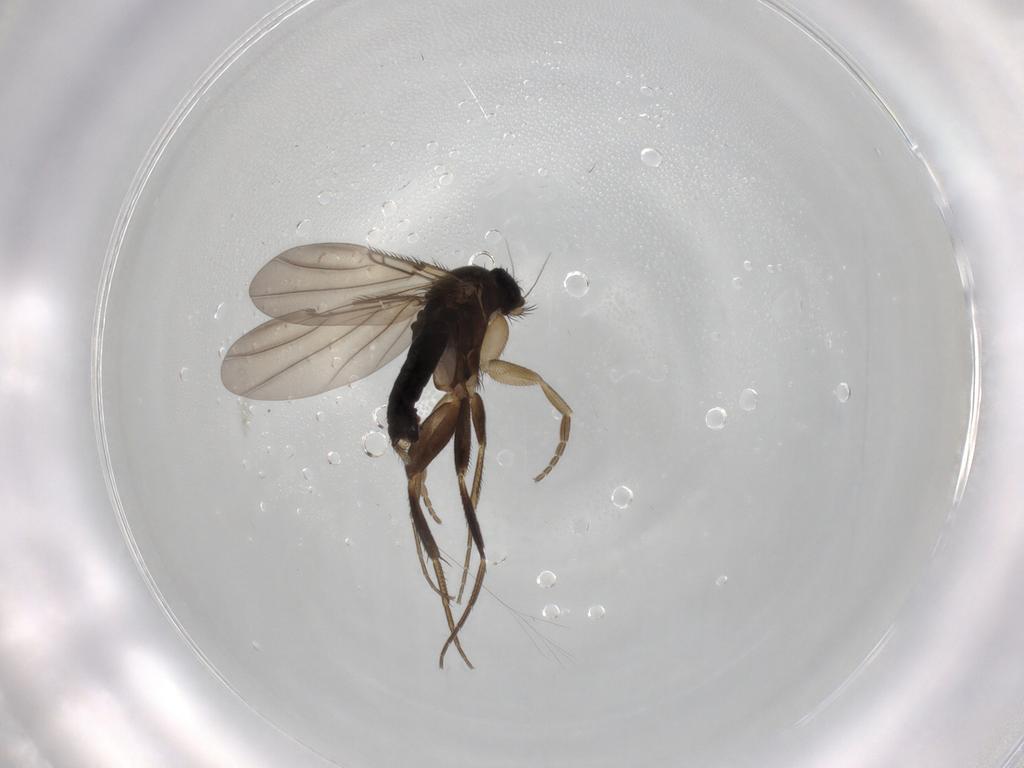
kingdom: Animalia
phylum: Arthropoda
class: Insecta
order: Diptera
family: Phoridae
